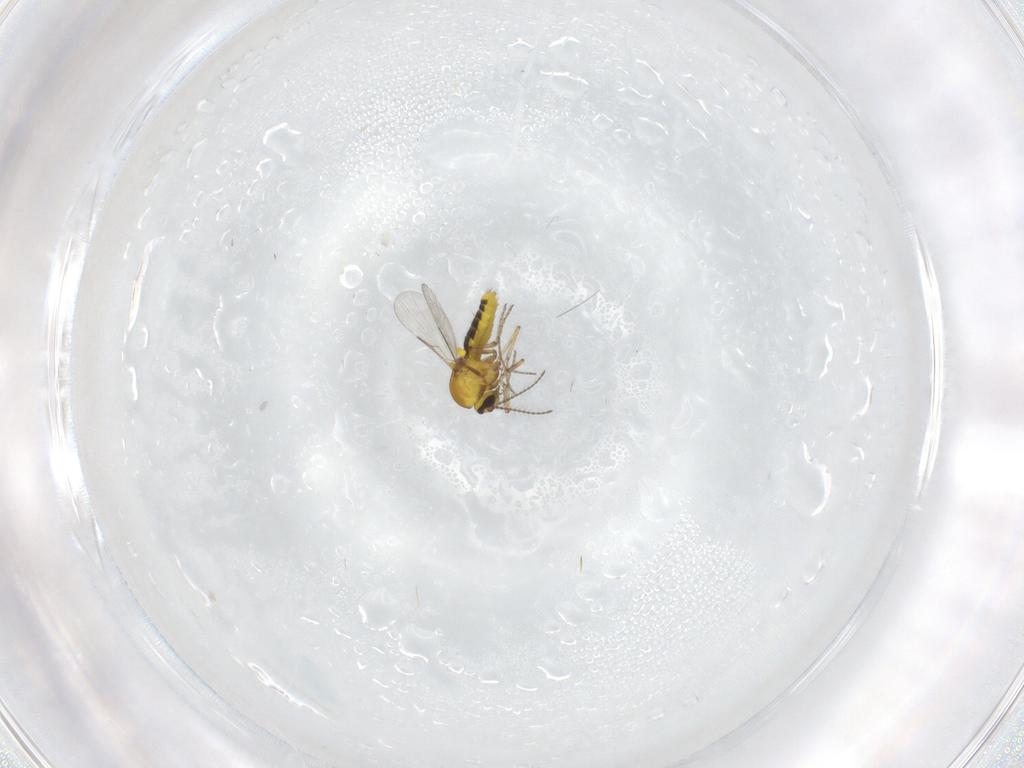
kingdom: Animalia
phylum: Arthropoda
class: Insecta
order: Diptera
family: Ceratopogonidae
